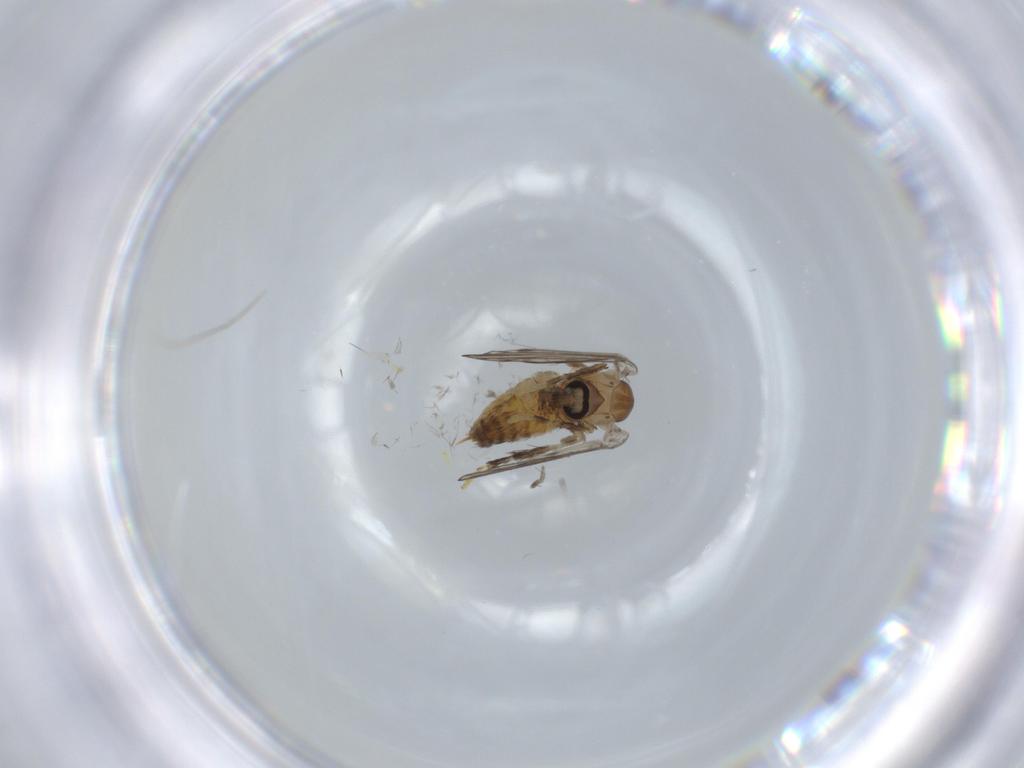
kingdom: Animalia
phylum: Arthropoda
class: Insecta
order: Diptera
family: Psychodidae
